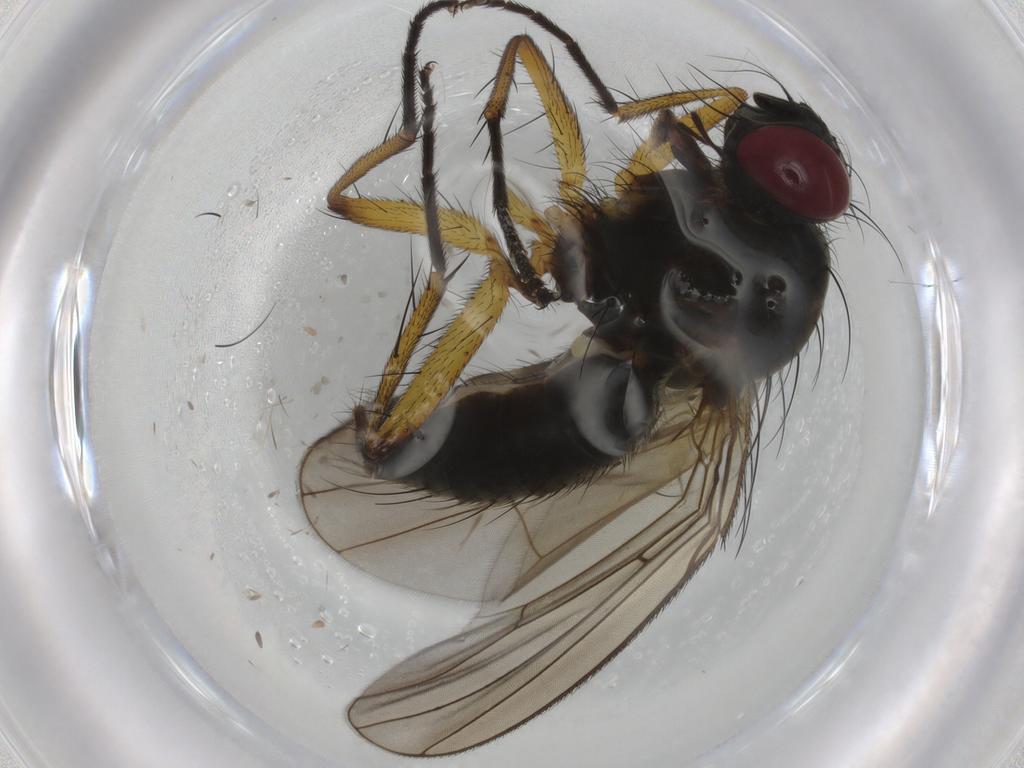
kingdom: Animalia
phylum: Arthropoda
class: Insecta
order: Diptera
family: Muscidae
